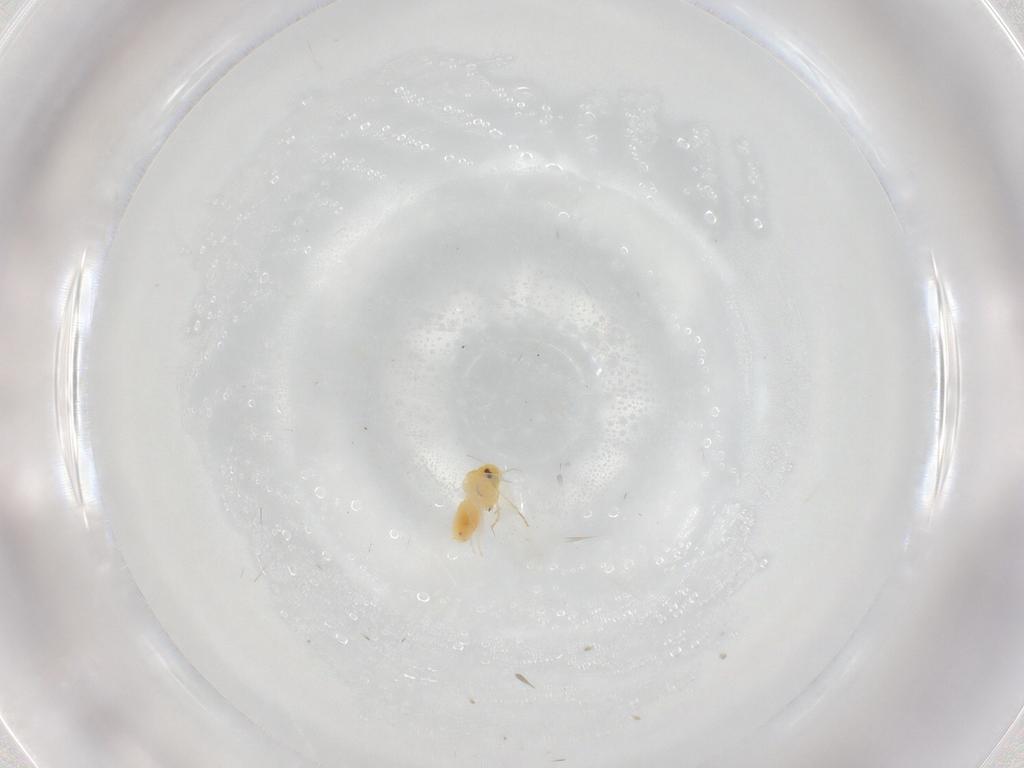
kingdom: Animalia
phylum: Arthropoda
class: Insecta
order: Hemiptera
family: Aleyrodidae
